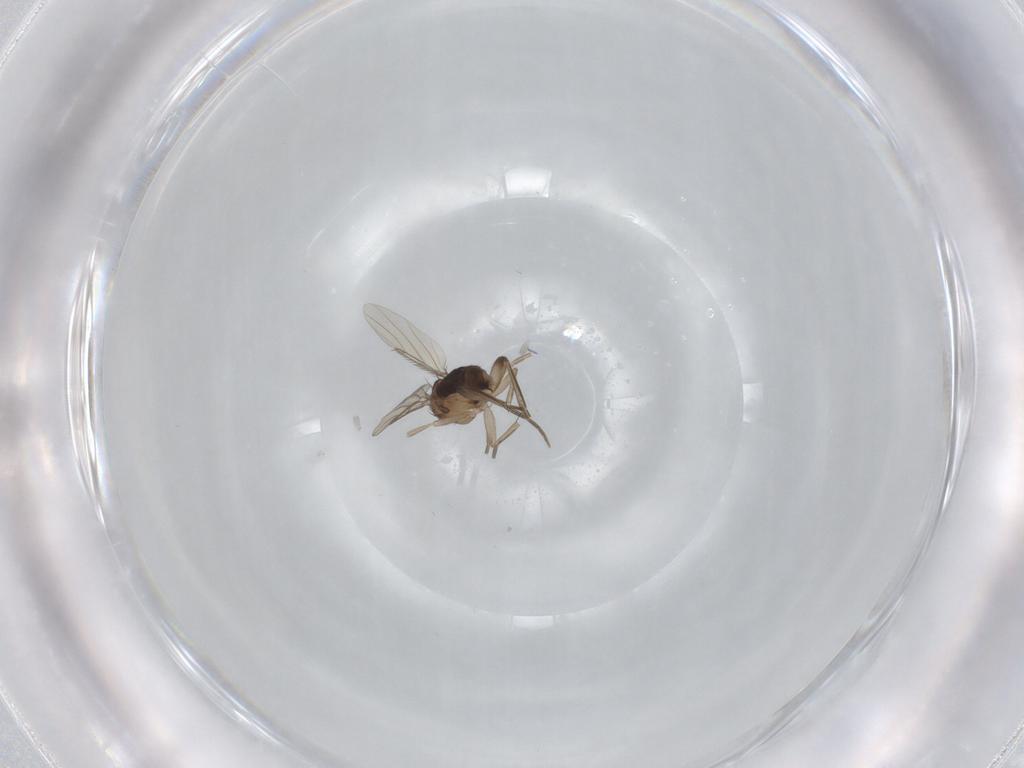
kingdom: Animalia
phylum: Arthropoda
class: Insecta
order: Diptera
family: Phoridae
